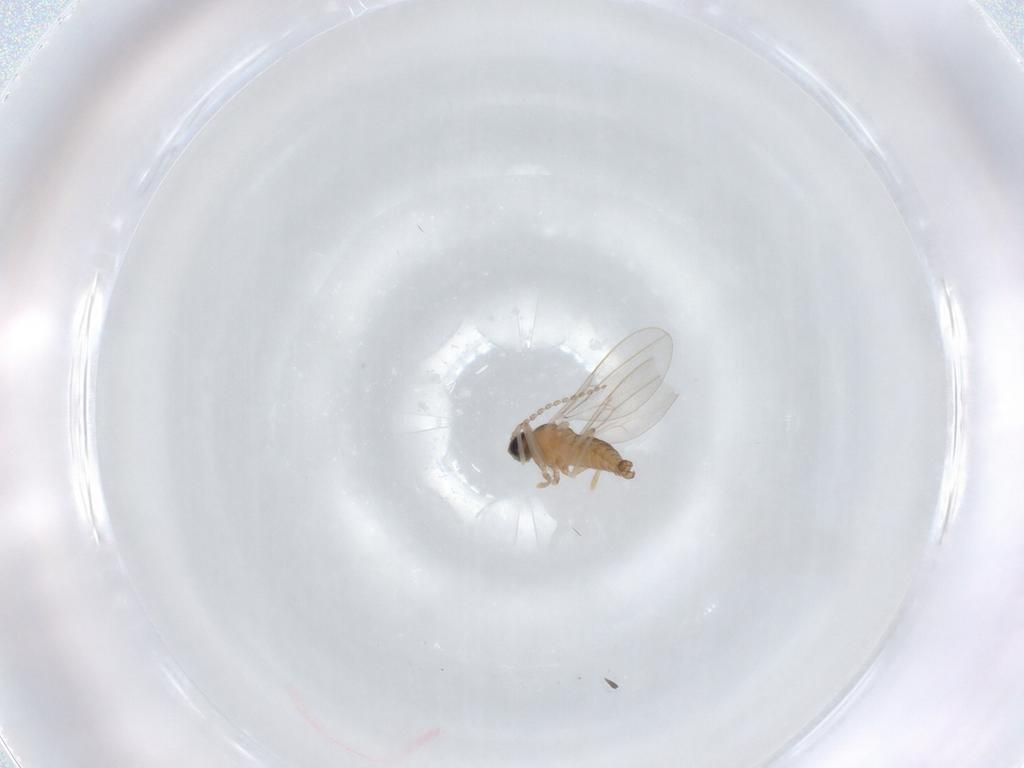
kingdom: Animalia
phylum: Arthropoda
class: Insecta
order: Diptera
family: Cecidomyiidae
